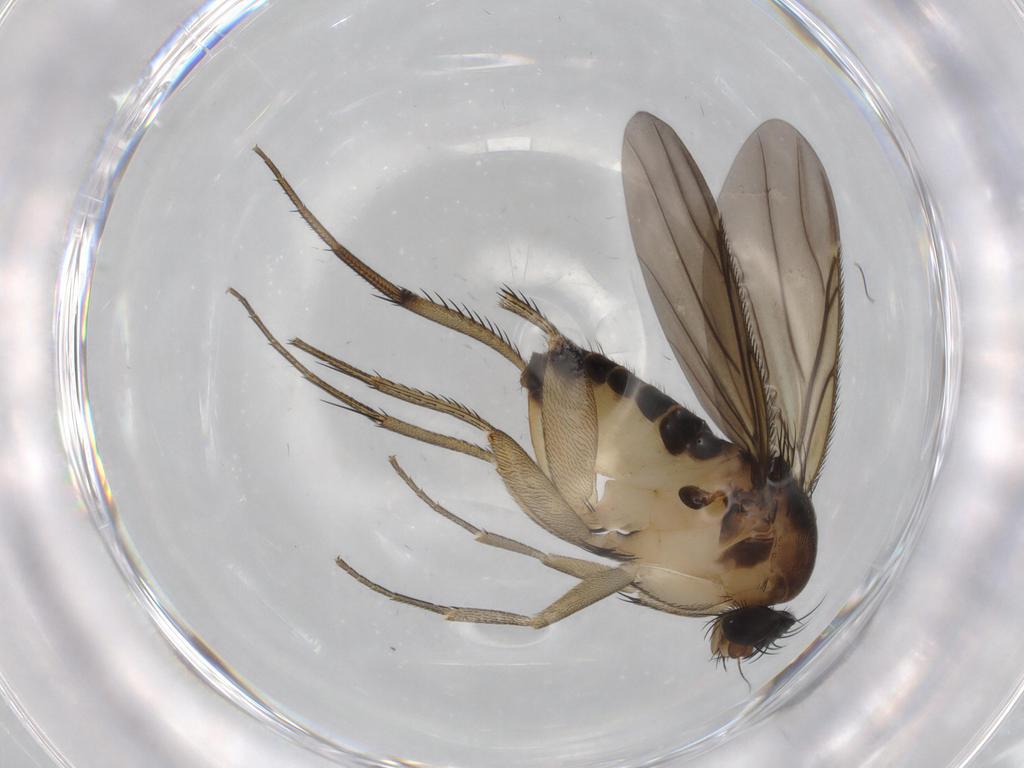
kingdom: Animalia
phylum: Arthropoda
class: Insecta
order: Diptera
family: Phoridae
